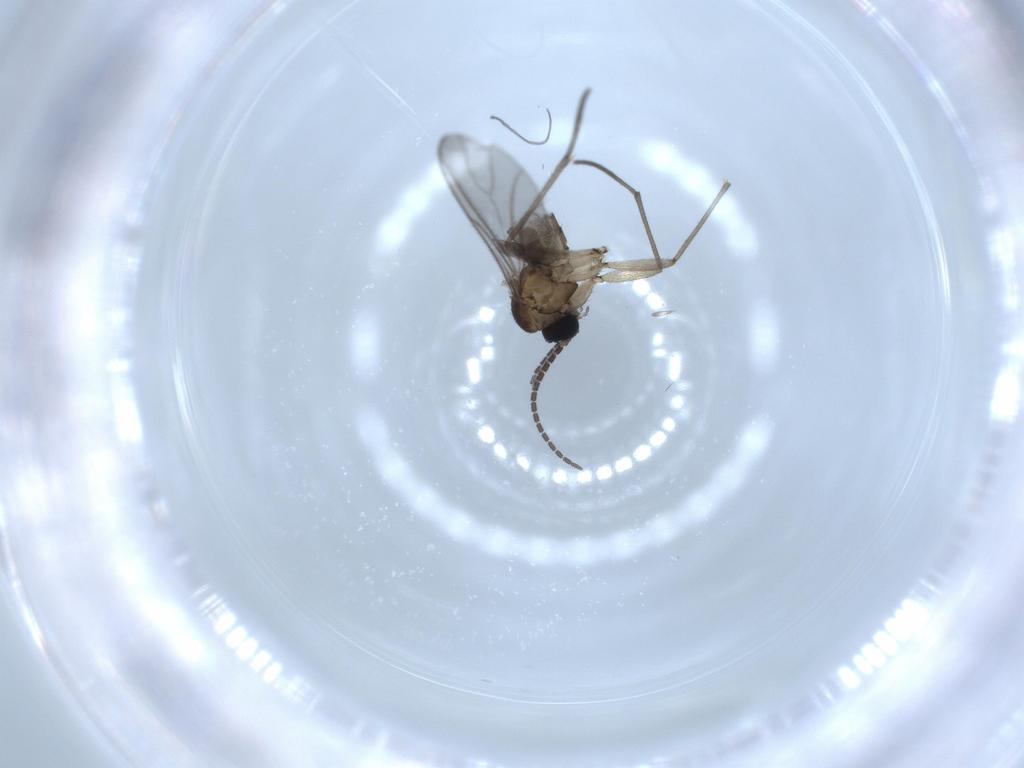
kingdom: Animalia
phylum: Arthropoda
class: Insecta
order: Diptera
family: Sciaridae
